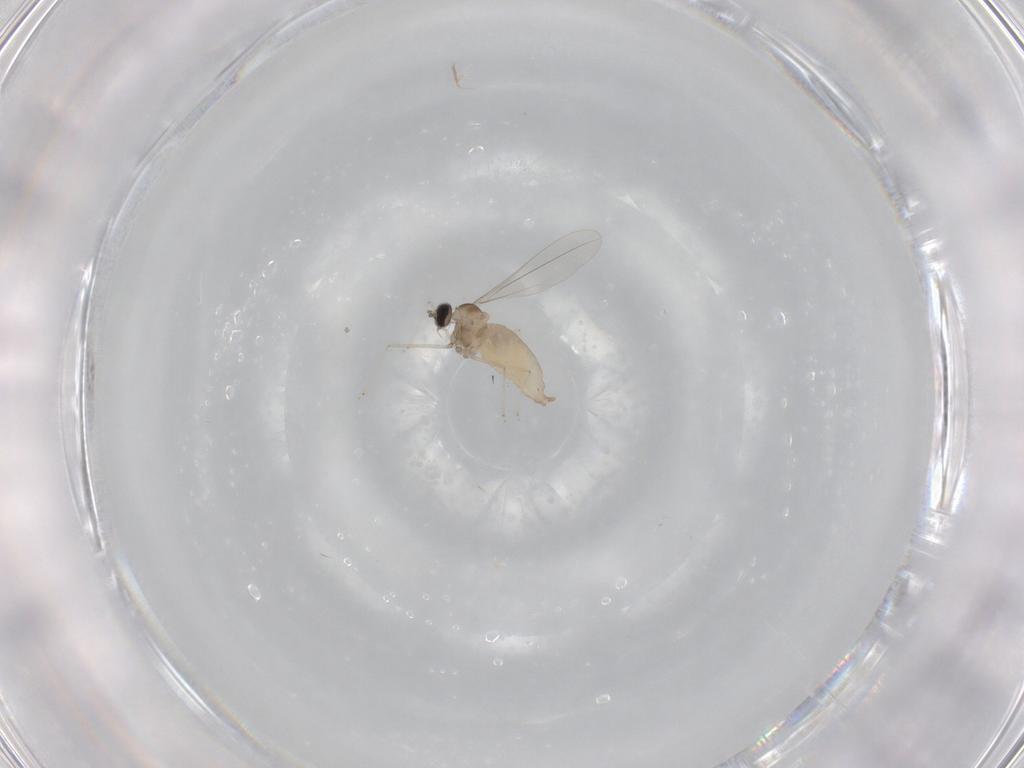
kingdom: Animalia
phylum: Arthropoda
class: Insecta
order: Diptera
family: Cecidomyiidae
